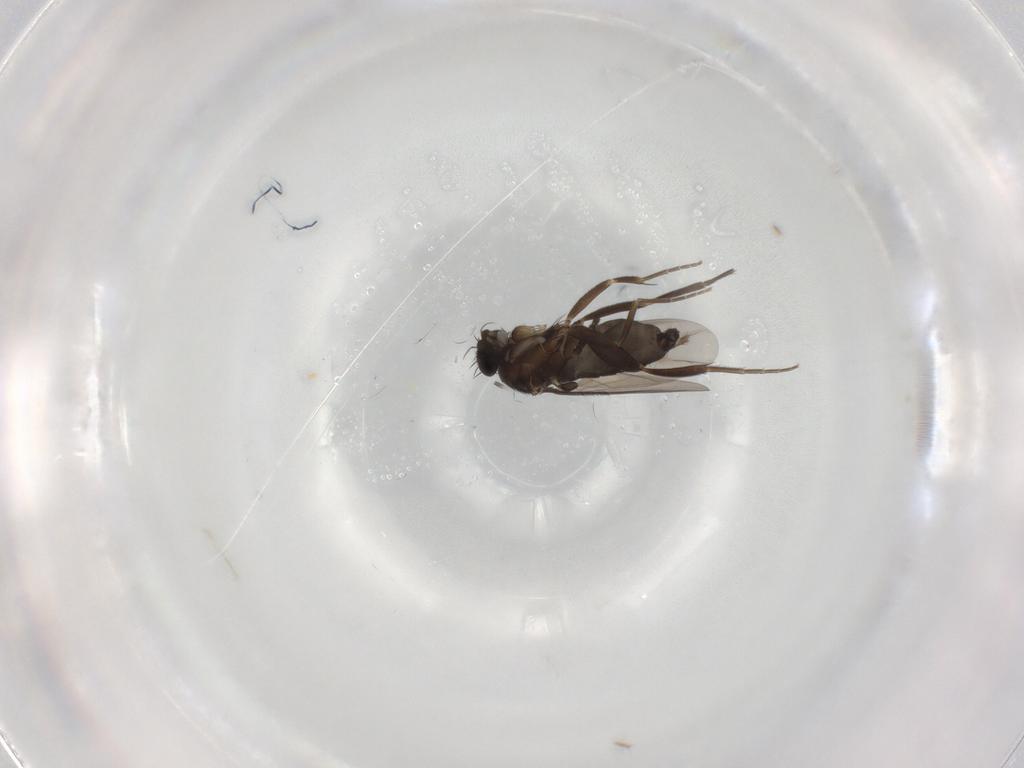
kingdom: Animalia
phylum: Arthropoda
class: Insecta
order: Diptera
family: Phoridae
